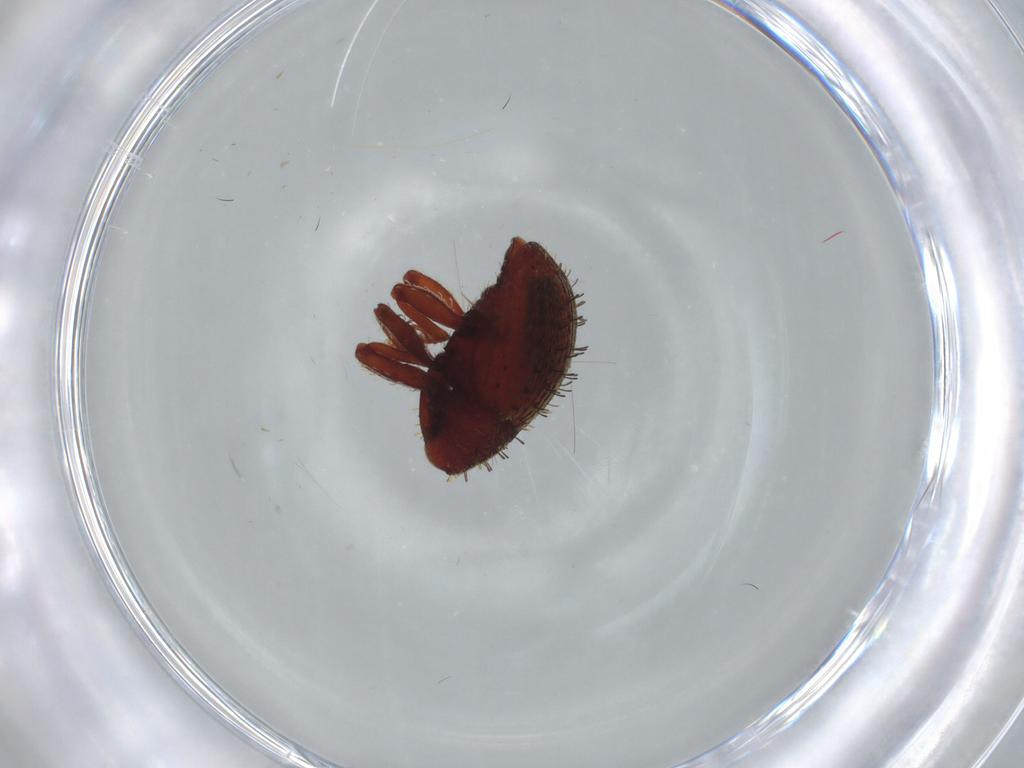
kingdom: Animalia
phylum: Arthropoda
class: Insecta
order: Coleoptera
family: Curculionidae
